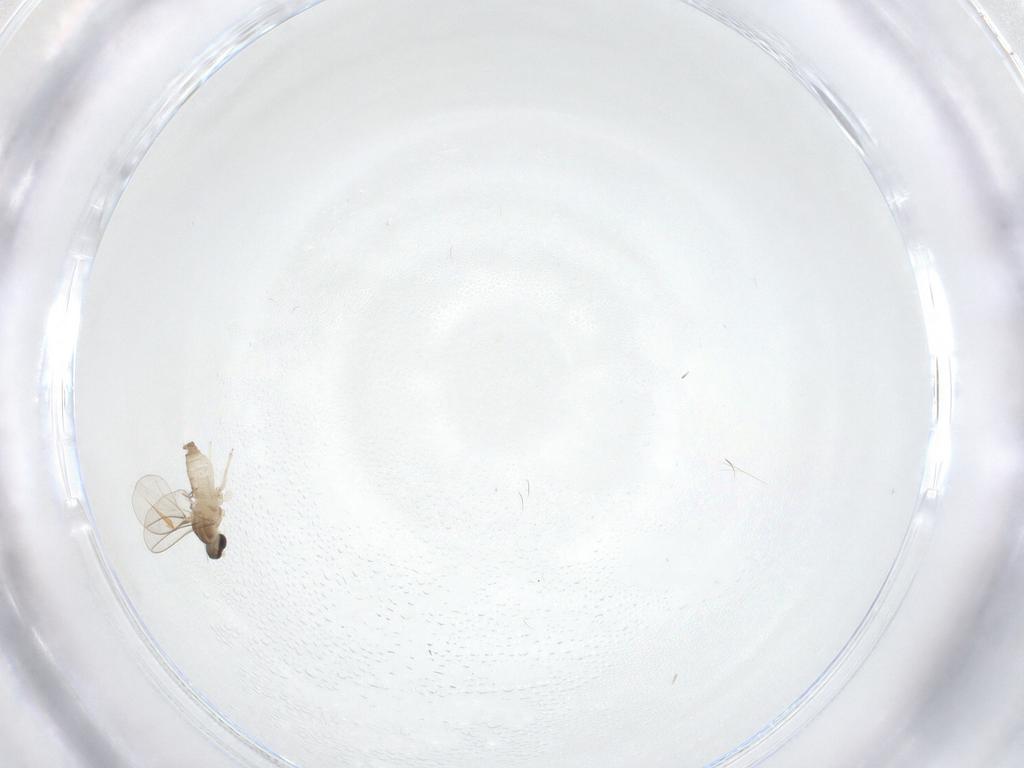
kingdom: Animalia
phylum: Arthropoda
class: Insecta
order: Diptera
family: Cecidomyiidae
